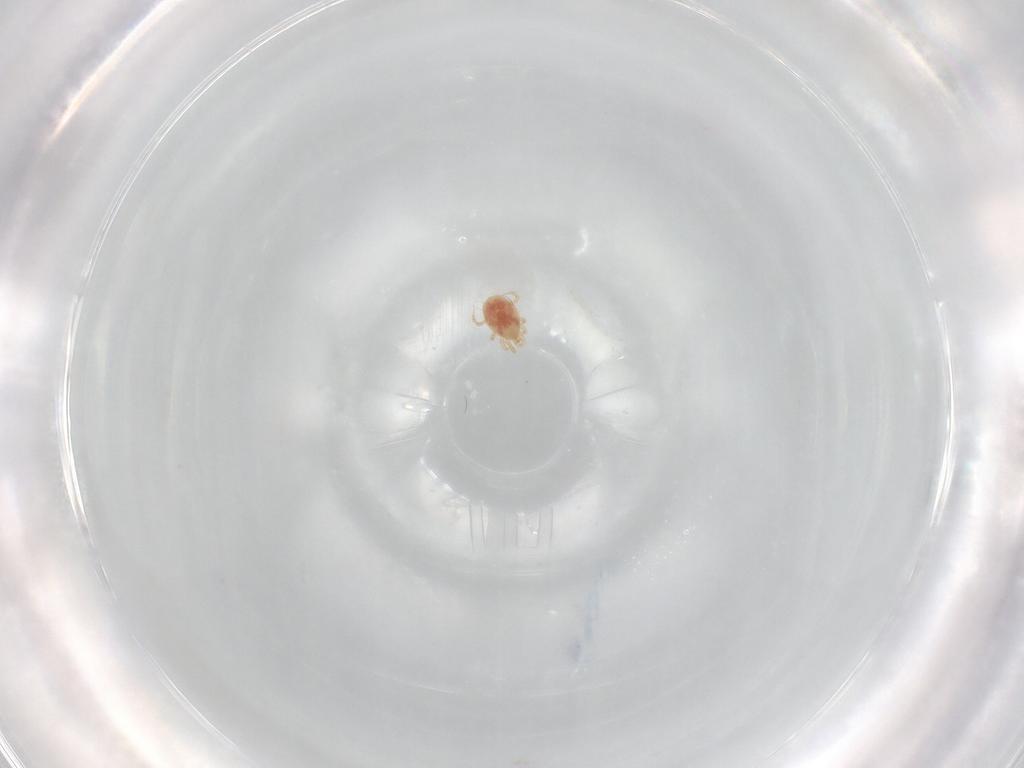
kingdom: Animalia
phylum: Arthropoda
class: Arachnida
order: Mesostigmata
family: Phytoseiidae
